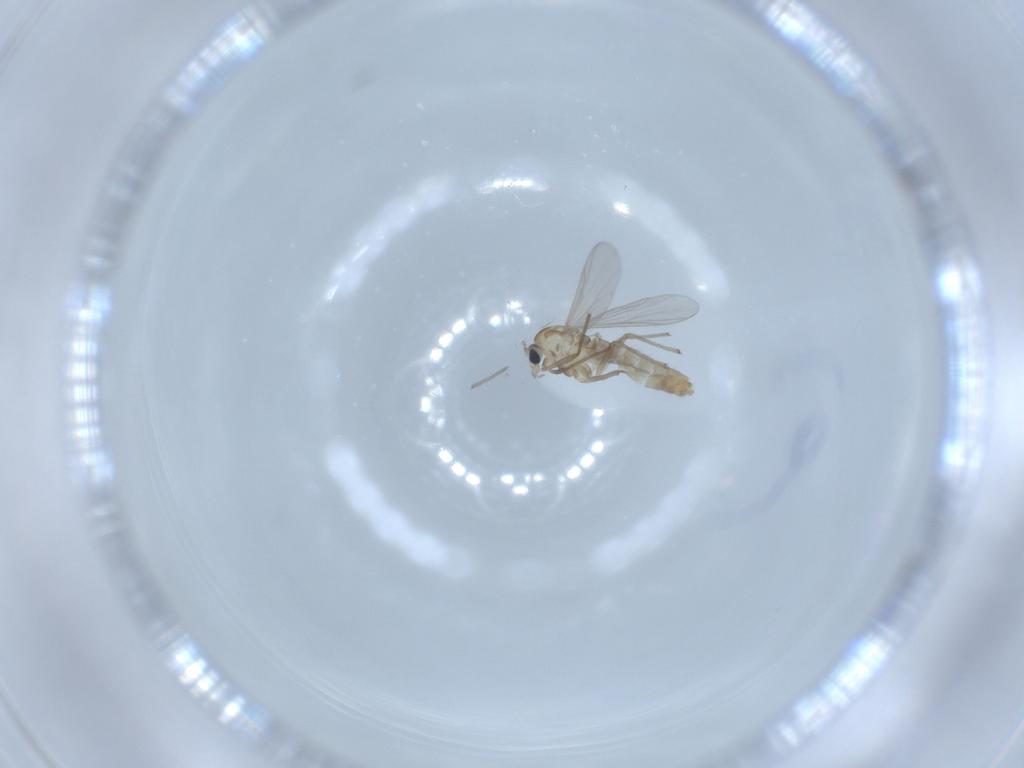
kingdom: Animalia
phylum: Arthropoda
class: Insecta
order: Diptera
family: Chironomidae
